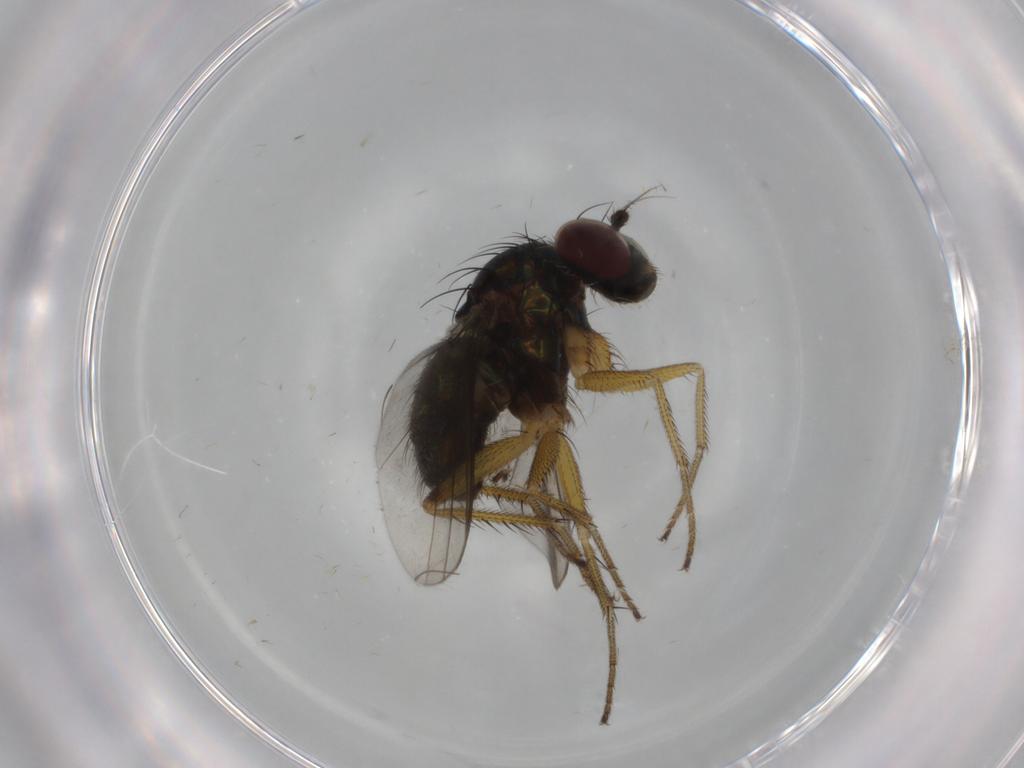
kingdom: Animalia
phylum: Arthropoda
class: Insecta
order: Diptera
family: Dolichopodidae
